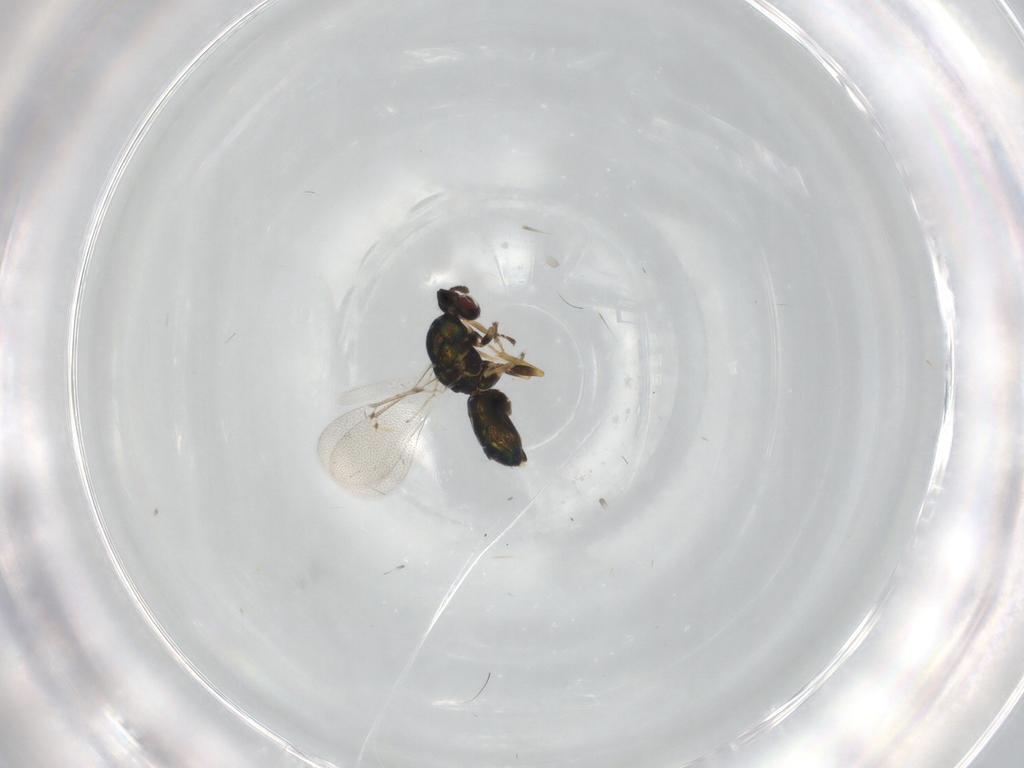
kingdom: Animalia
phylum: Arthropoda
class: Insecta
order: Hymenoptera
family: Eulophidae
